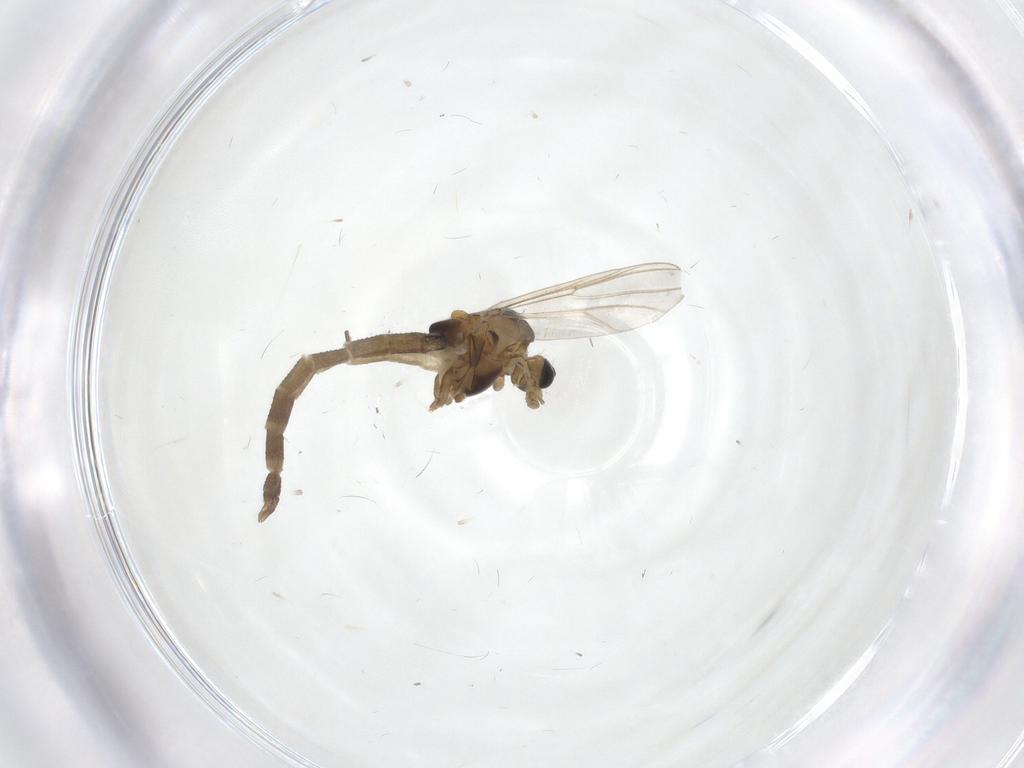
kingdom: Animalia
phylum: Arthropoda
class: Insecta
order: Diptera
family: Chironomidae
